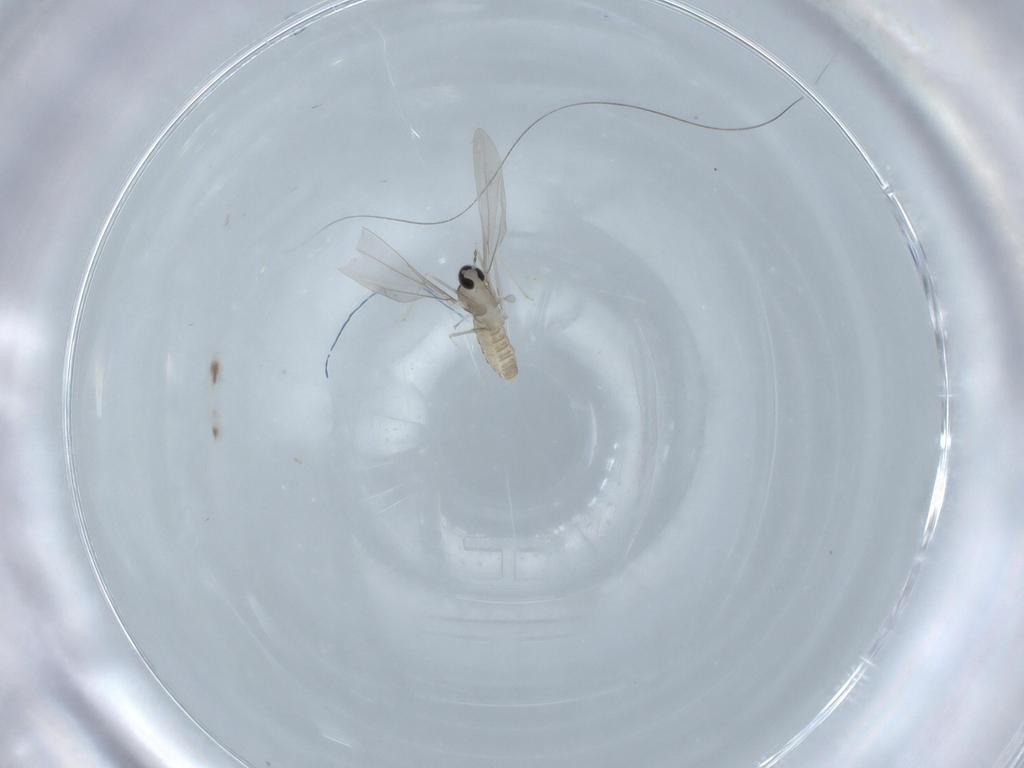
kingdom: Animalia
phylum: Arthropoda
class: Insecta
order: Diptera
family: Cecidomyiidae
